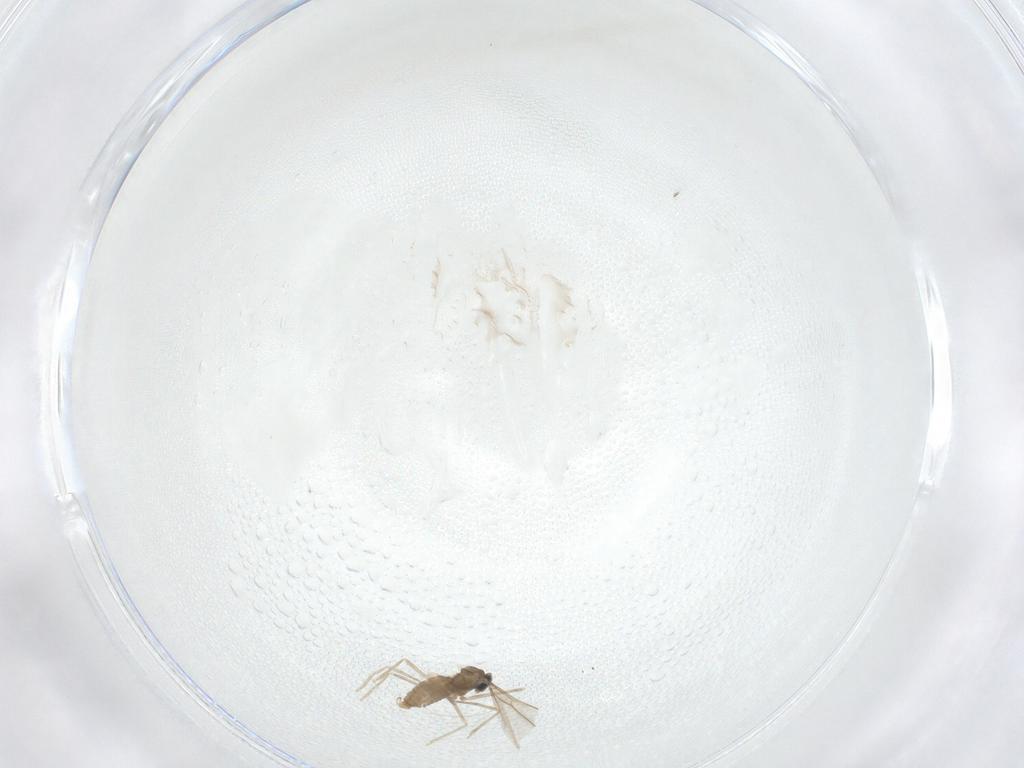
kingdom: Animalia
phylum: Arthropoda
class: Insecta
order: Diptera
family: Cecidomyiidae
